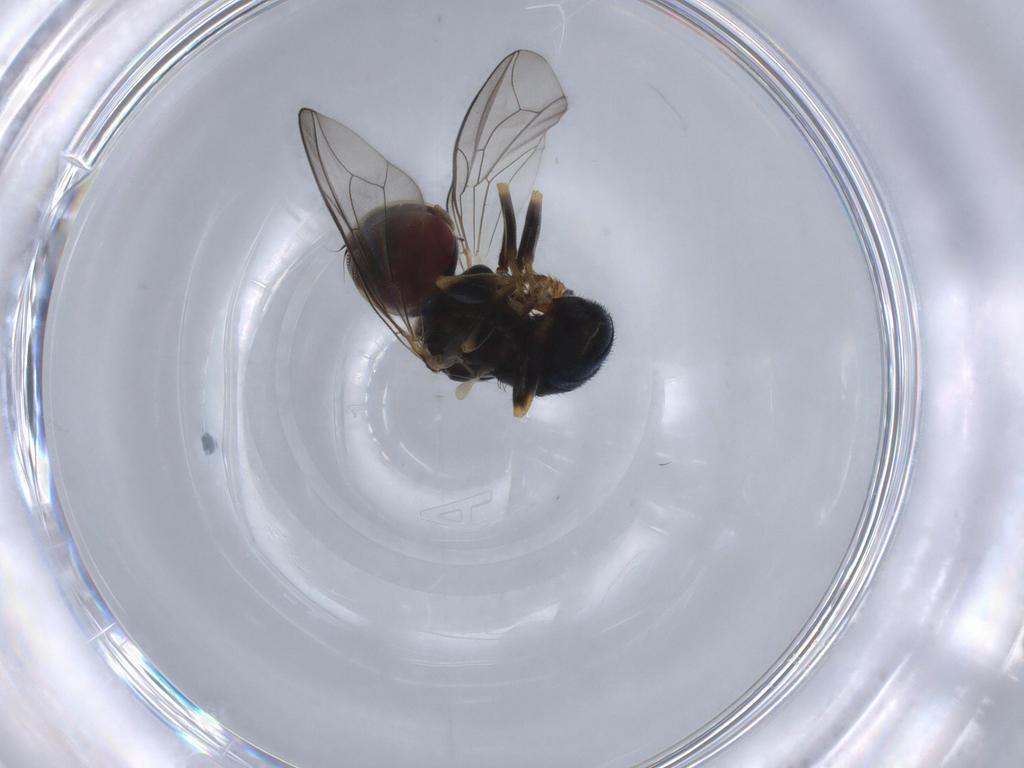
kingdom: Animalia
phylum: Arthropoda
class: Insecta
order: Diptera
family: Pipunculidae
